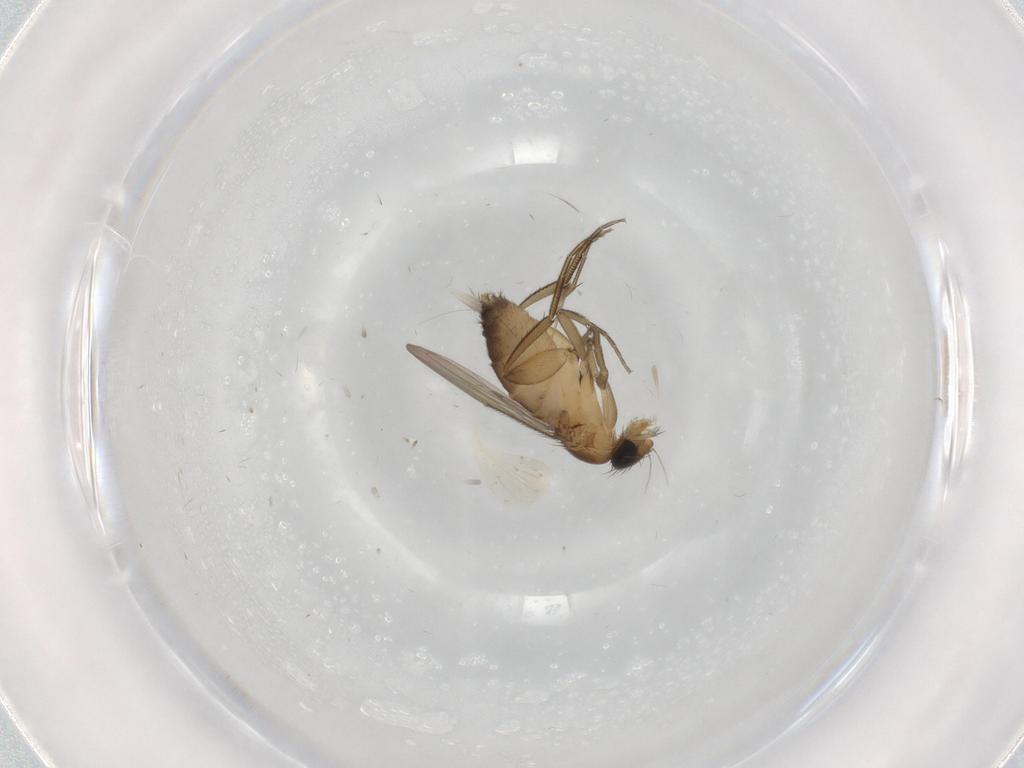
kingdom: Animalia
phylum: Arthropoda
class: Insecta
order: Diptera
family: Phoridae
